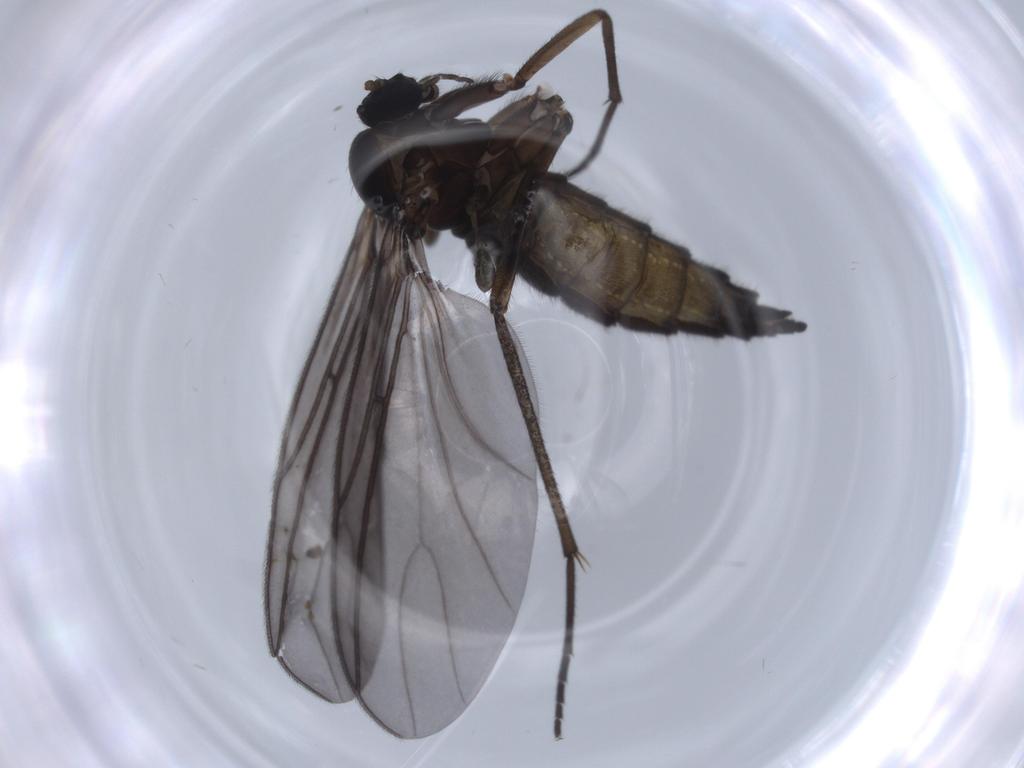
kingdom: Animalia
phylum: Arthropoda
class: Insecta
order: Diptera
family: Sciaridae
